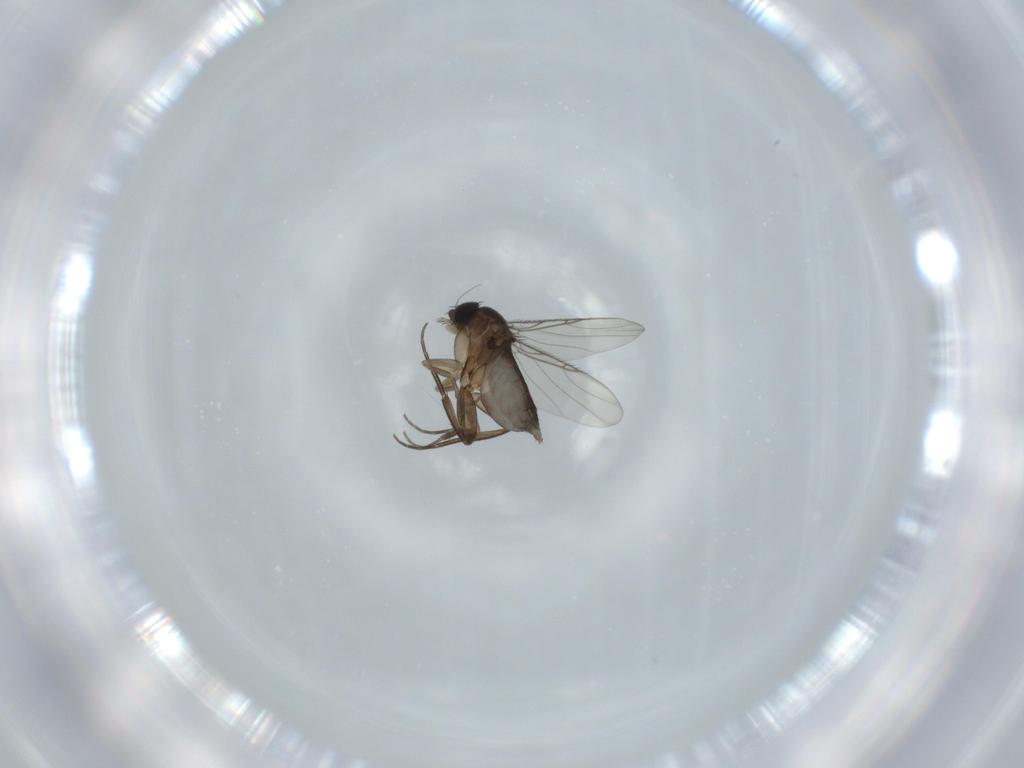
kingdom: Animalia
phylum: Arthropoda
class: Insecta
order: Diptera
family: Phoridae
